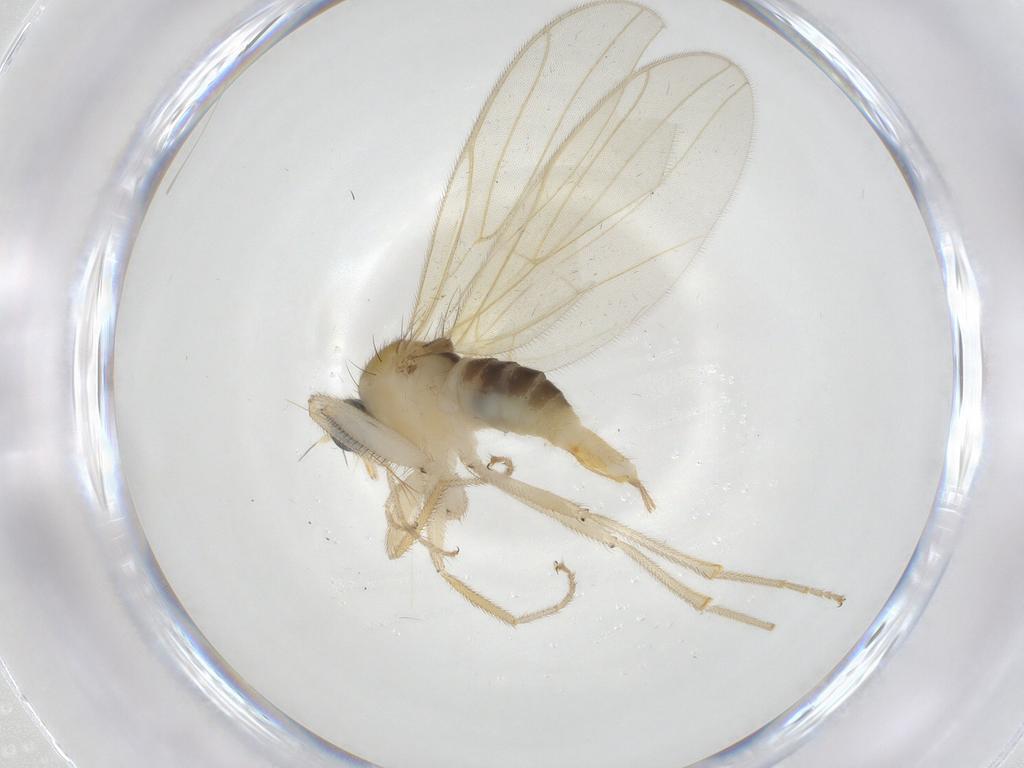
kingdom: Animalia
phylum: Arthropoda
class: Insecta
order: Diptera
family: Hybotidae
